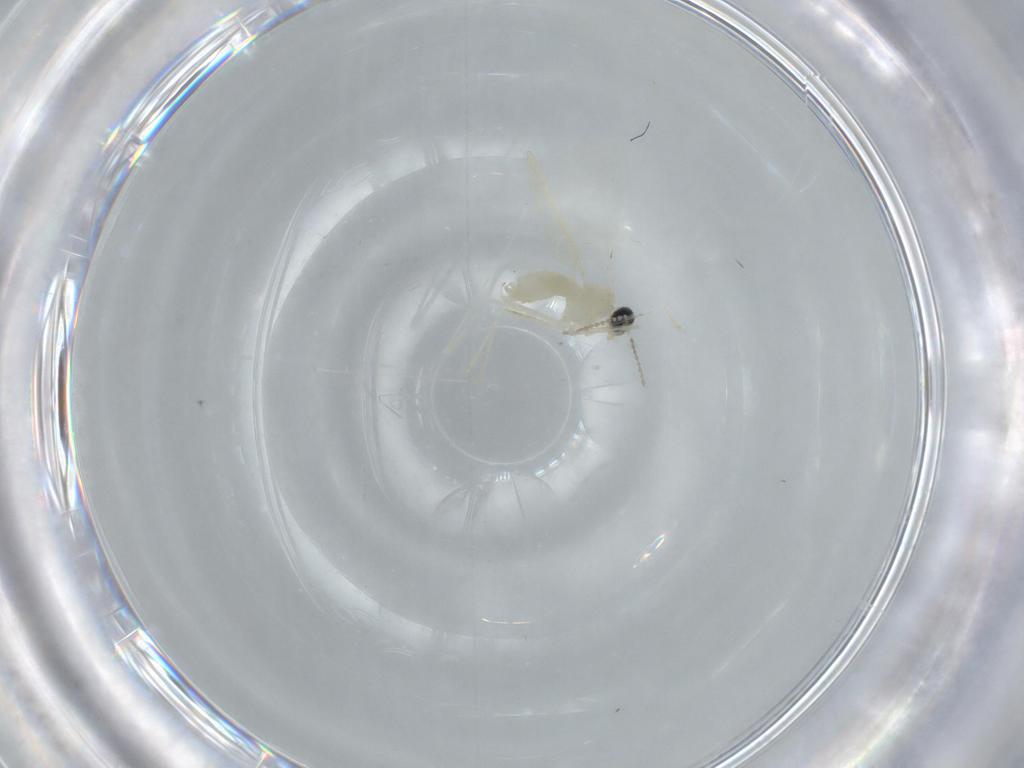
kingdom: Animalia
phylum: Arthropoda
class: Insecta
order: Diptera
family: Cecidomyiidae
